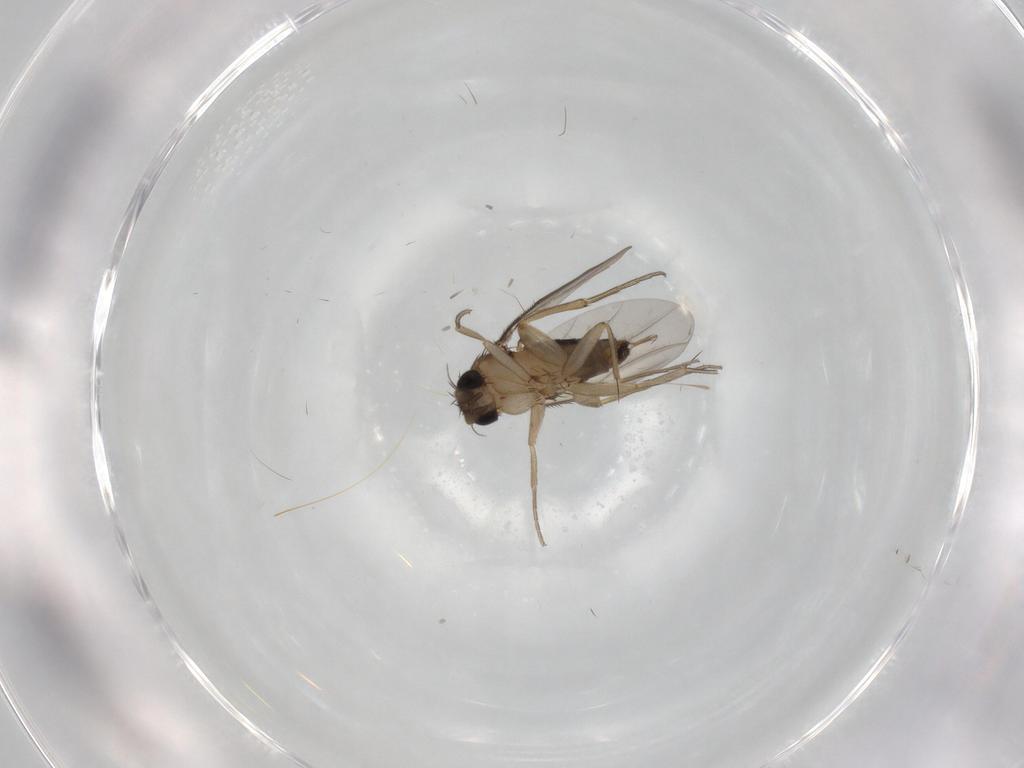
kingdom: Animalia
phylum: Arthropoda
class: Insecta
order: Diptera
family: Phoridae
